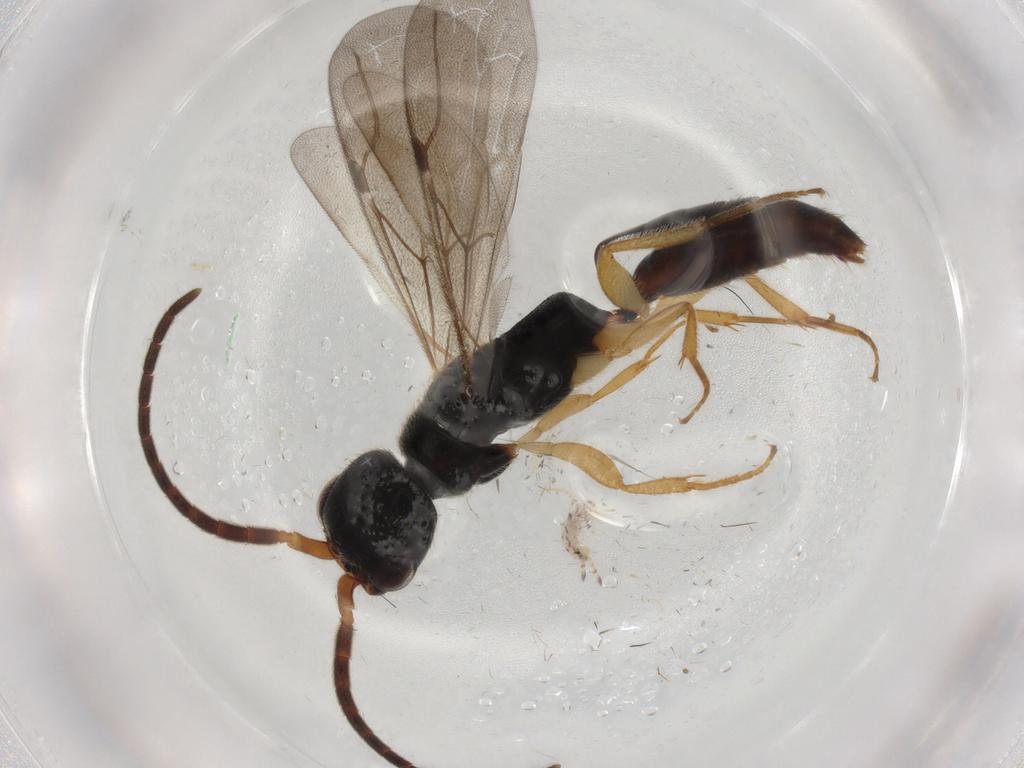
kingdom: Animalia
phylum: Arthropoda
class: Insecta
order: Hymenoptera
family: Bethylidae
